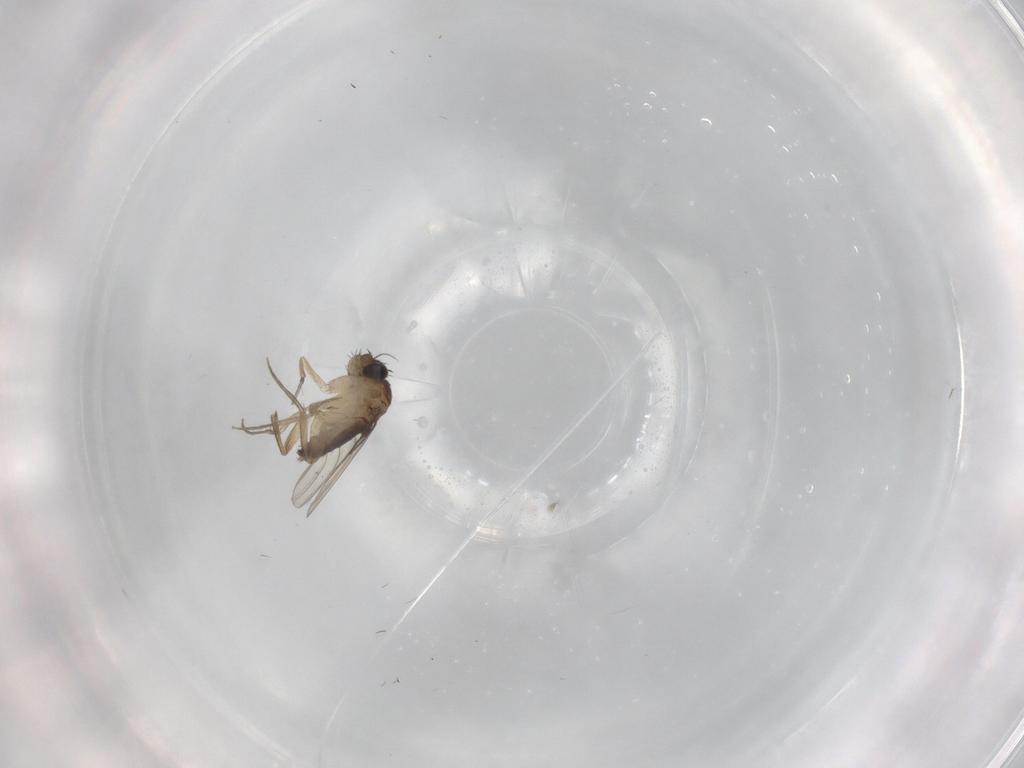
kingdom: Animalia
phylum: Arthropoda
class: Insecta
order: Diptera
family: Phoridae
